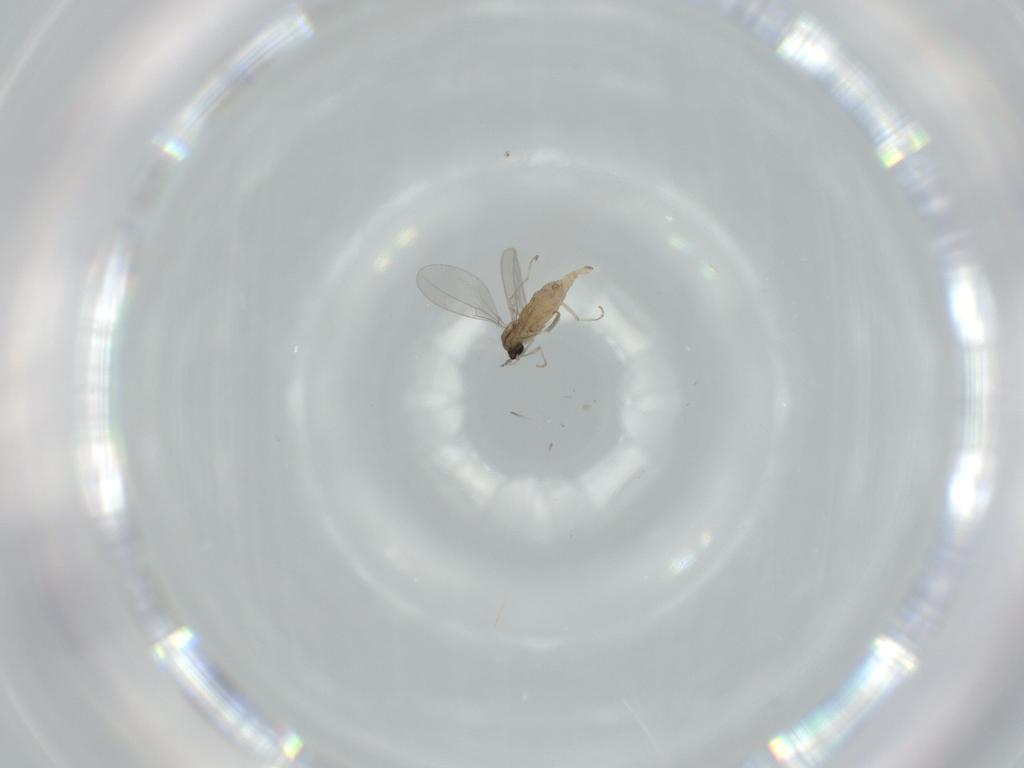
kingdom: Animalia
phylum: Arthropoda
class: Insecta
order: Diptera
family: Cecidomyiidae
